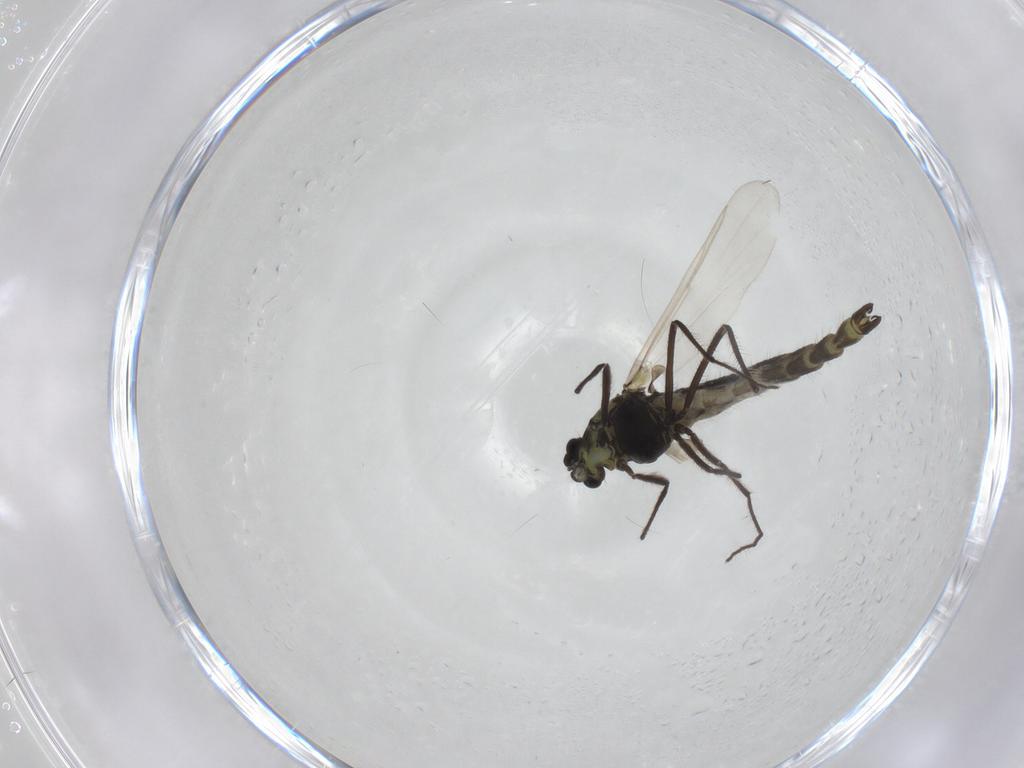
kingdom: Animalia
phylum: Arthropoda
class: Insecta
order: Diptera
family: Chironomidae
